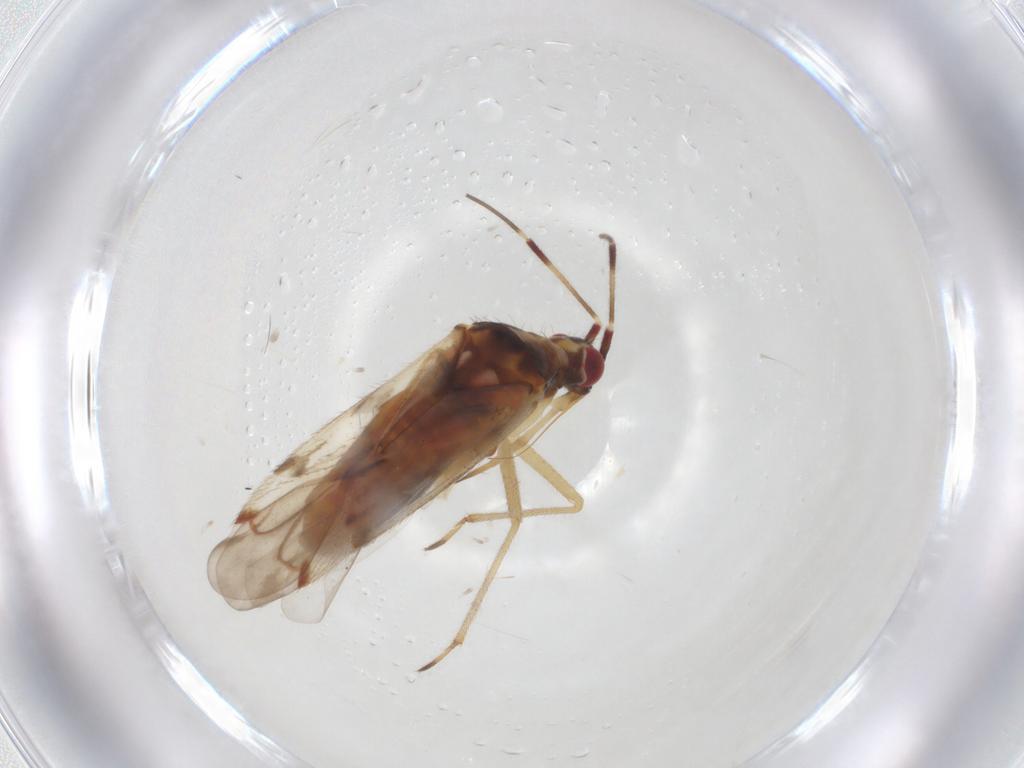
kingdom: Animalia
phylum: Arthropoda
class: Insecta
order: Hemiptera
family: Miridae
